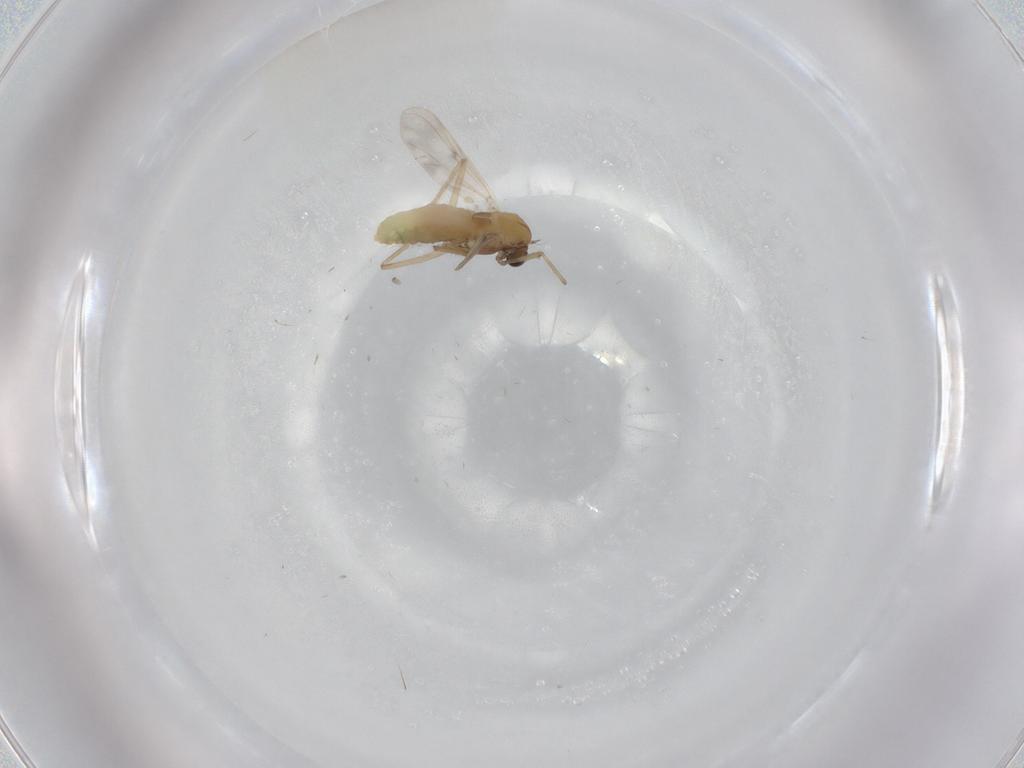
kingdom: Animalia
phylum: Arthropoda
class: Insecta
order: Diptera
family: Chironomidae
